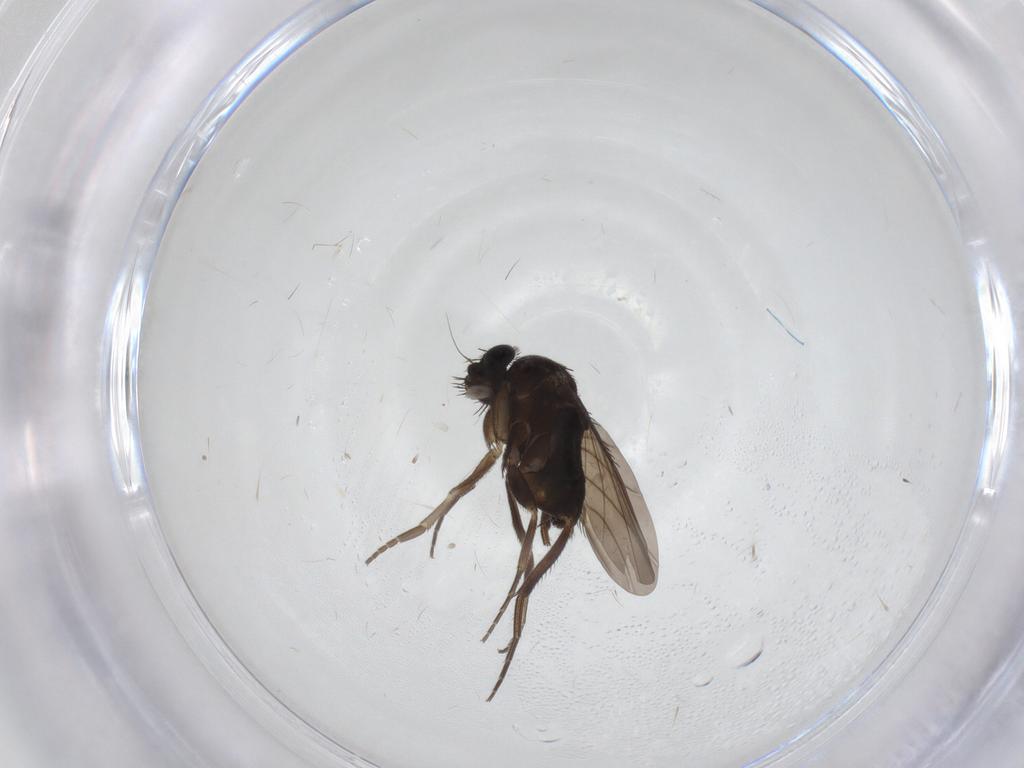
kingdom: Animalia
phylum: Arthropoda
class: Insecta
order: Diptera
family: Phoridae
